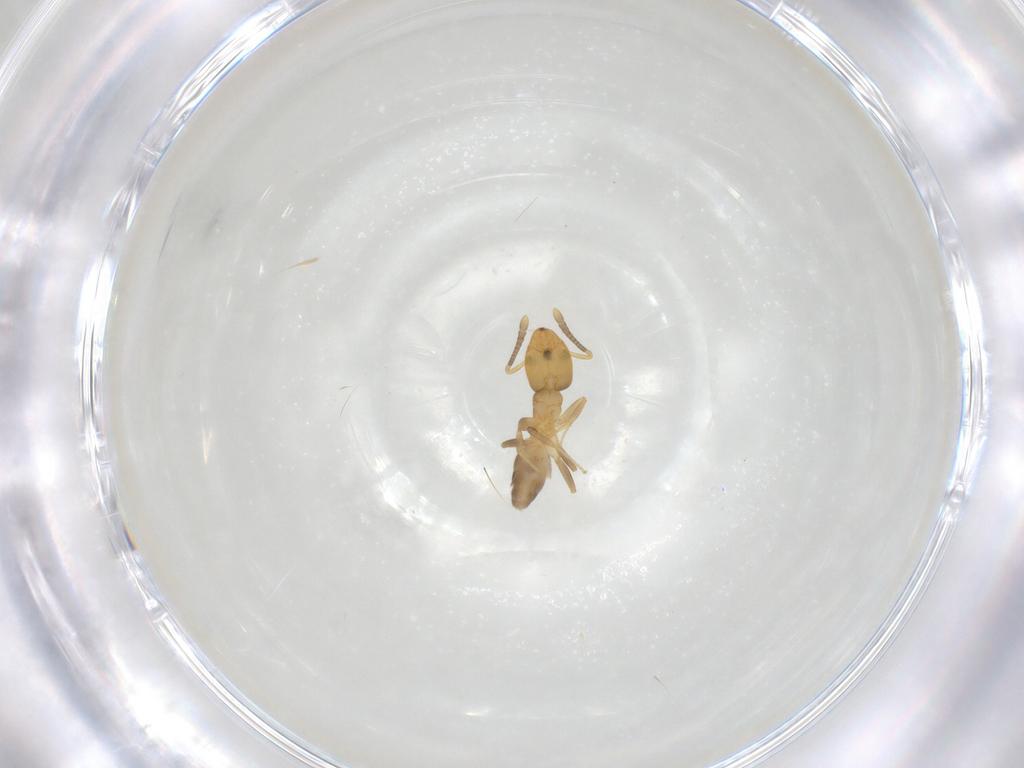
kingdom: Animalia
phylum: Arthropoda
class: Insecta
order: Hymenoptera
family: Formicidae
